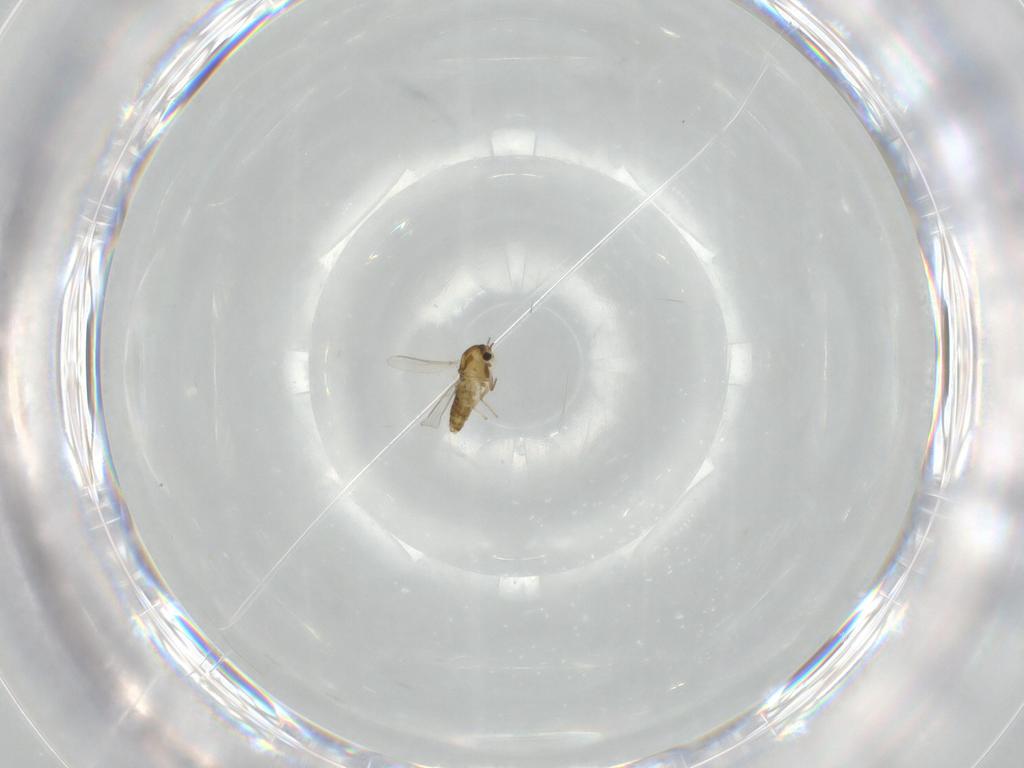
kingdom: Animalia
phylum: Arthropoda
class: Insecta
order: Diptera
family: Chironomidae
